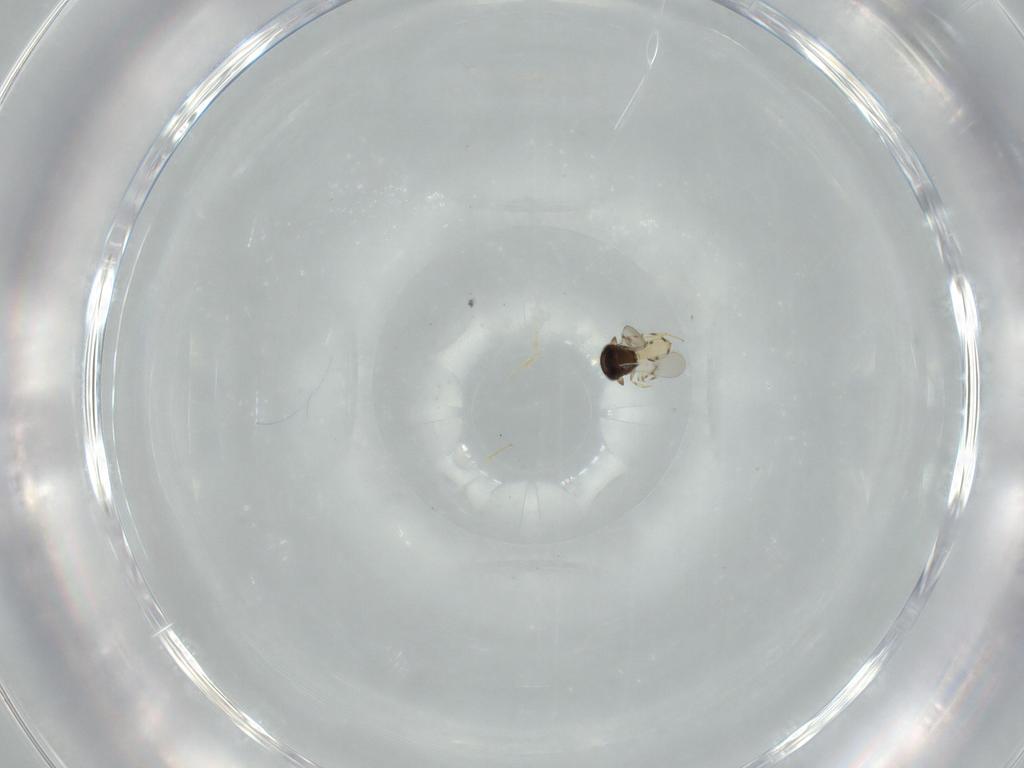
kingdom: Animalia
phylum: Arthropoda
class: Insecta
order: Hymenoptera
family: Scelionidae
